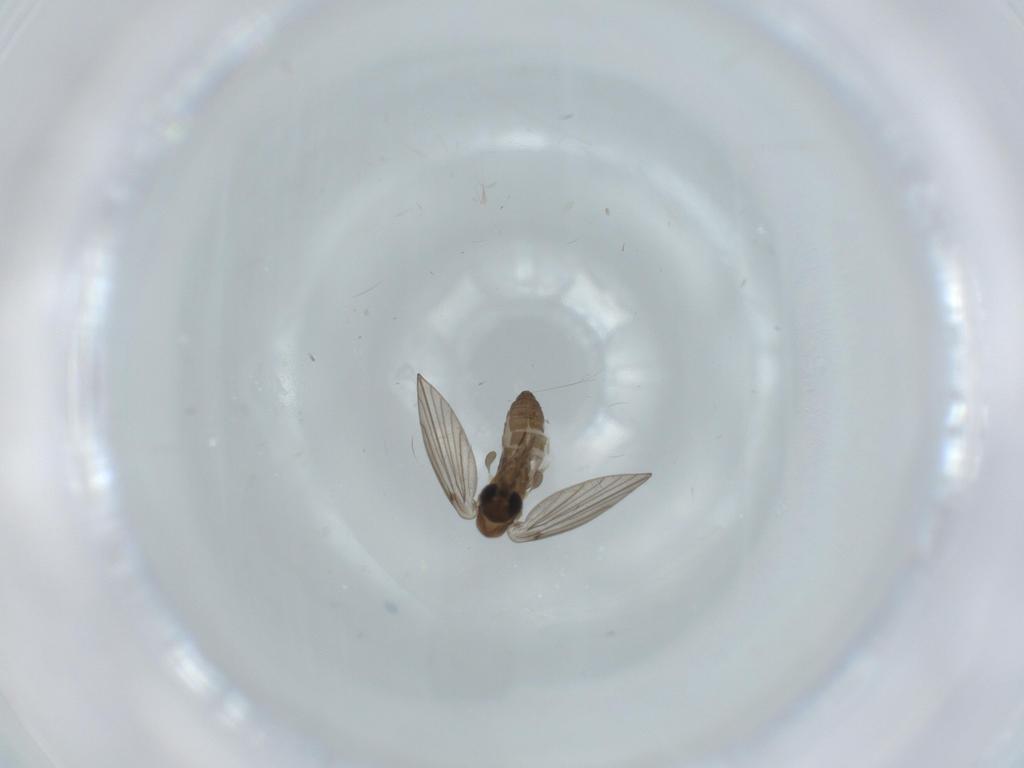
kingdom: Animalia
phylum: Arthropoda
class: Insecta
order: Diptera
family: Psychodidae
